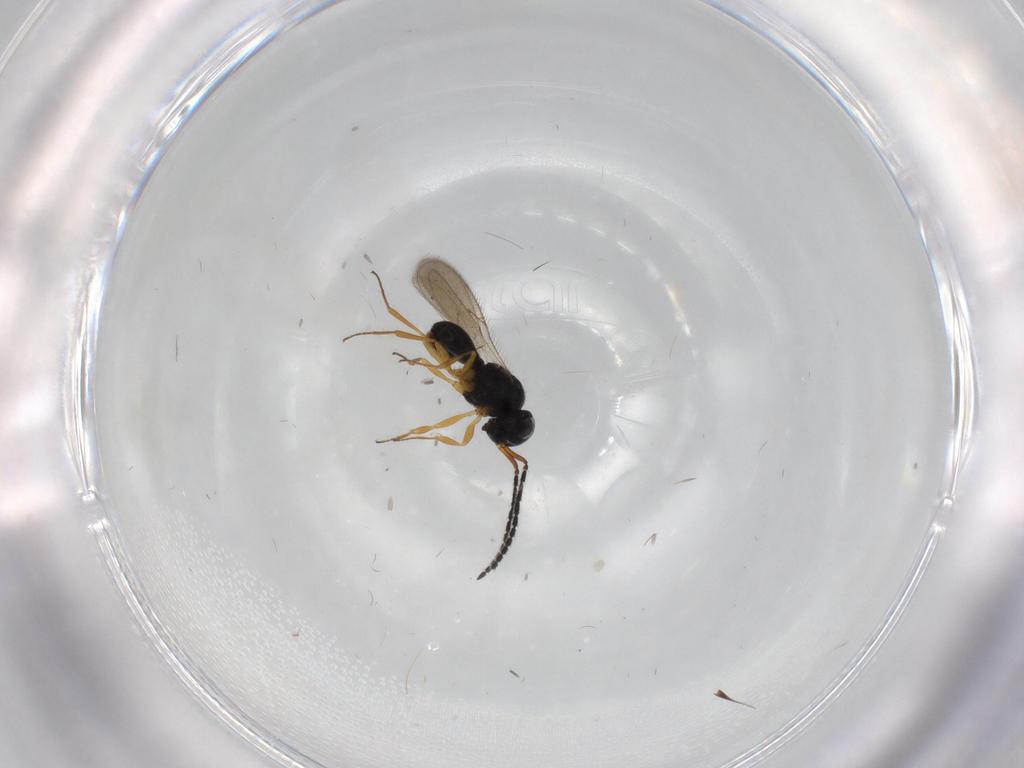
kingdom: Animalia
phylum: Arthropoda
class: Insecta
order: Hymenoptera
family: Scelionidae
